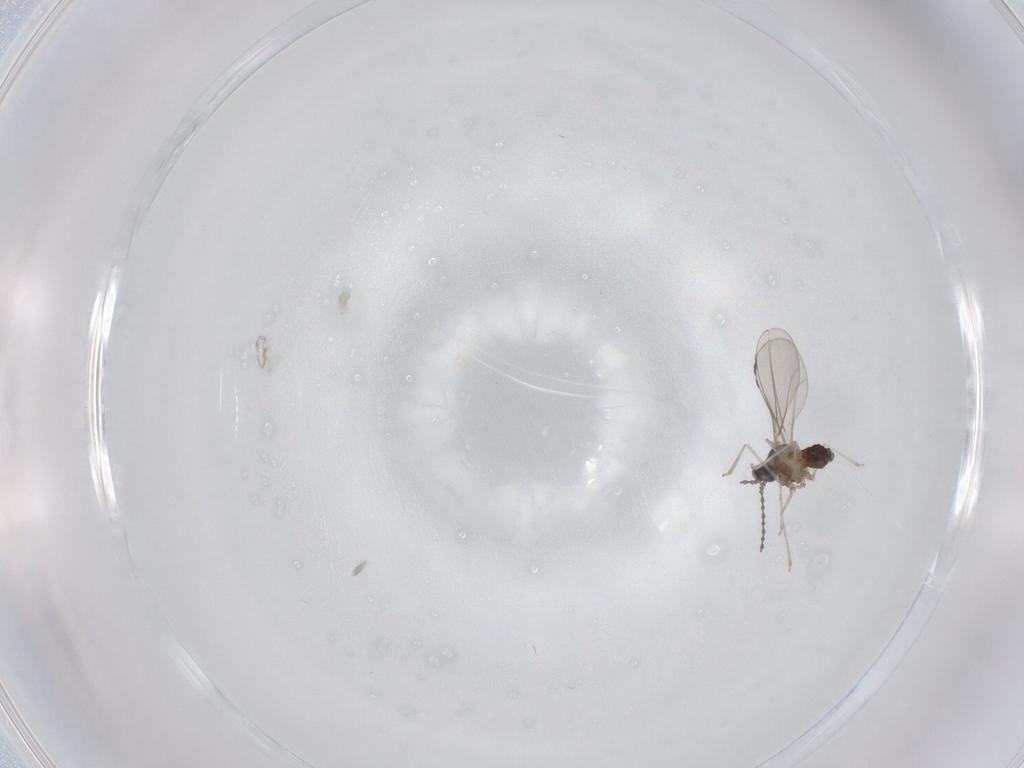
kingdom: Animalia
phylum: Arthropoda
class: Insecta
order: Diptera
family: Cecidomyiidae
